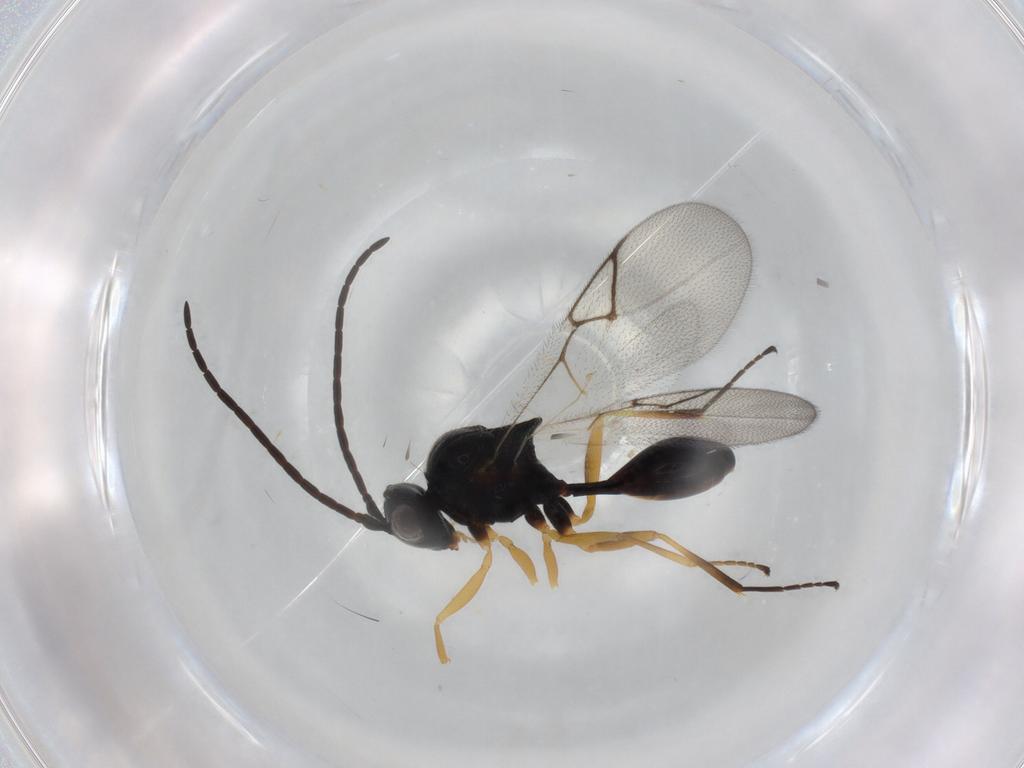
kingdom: Animalia
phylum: Arthropoda
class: Insecta
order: Hymenoptera
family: Figitidae
